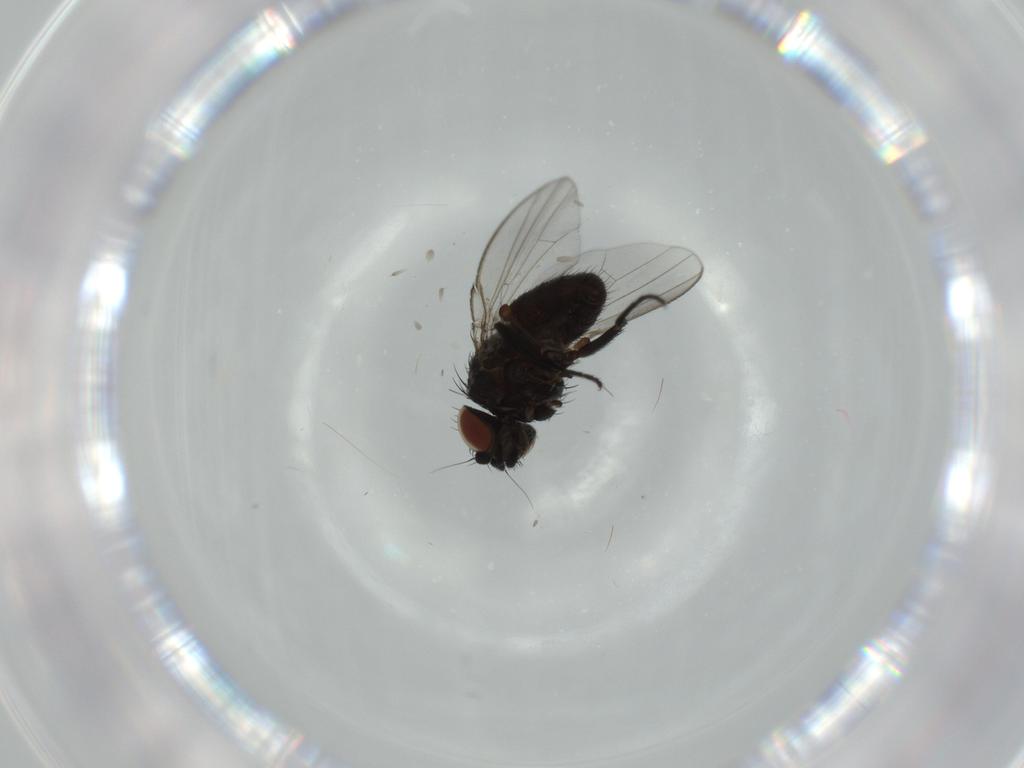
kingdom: Animalia
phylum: Arthropoda
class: Insecta
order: Diptera
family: Milichiidae
